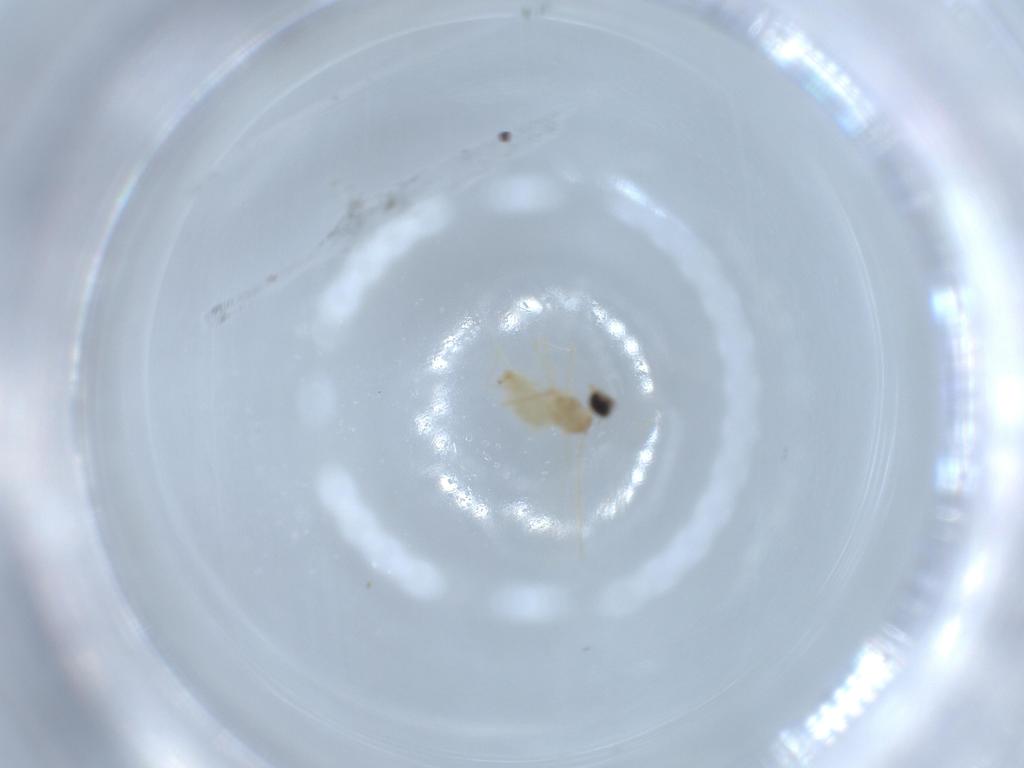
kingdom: Animalia
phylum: Arthropoda
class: Insecta
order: Diptera
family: Cecidomyiidae
